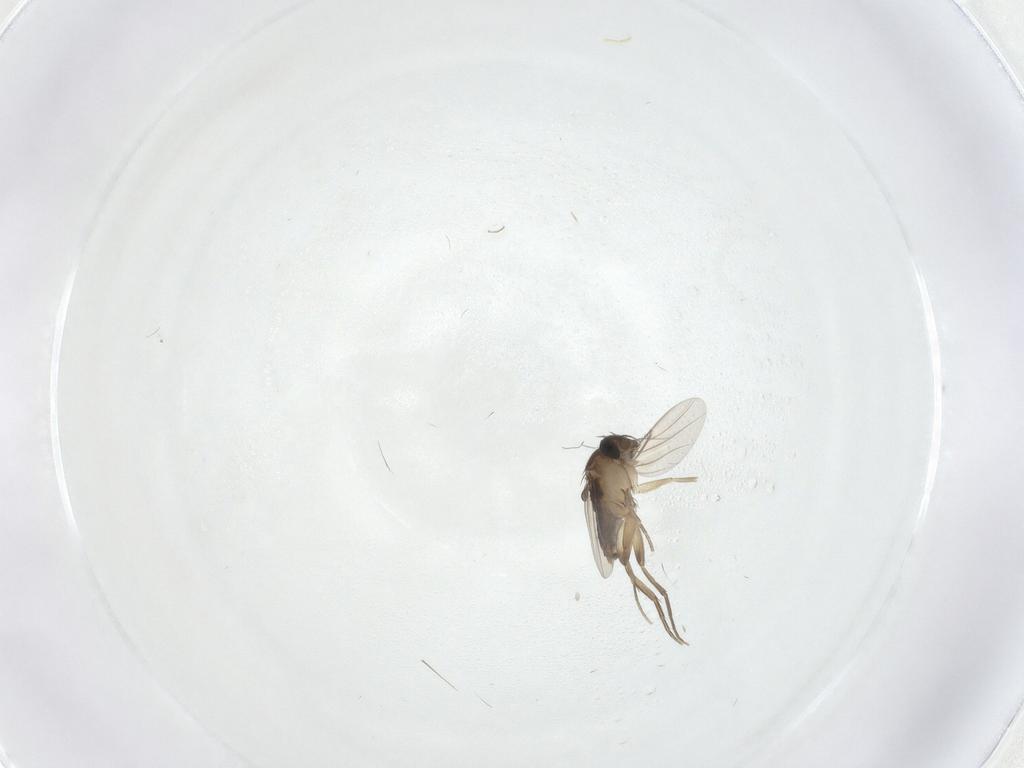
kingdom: Animalia
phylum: Arthropoda
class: Insecta
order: Diptera
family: Phoridae
